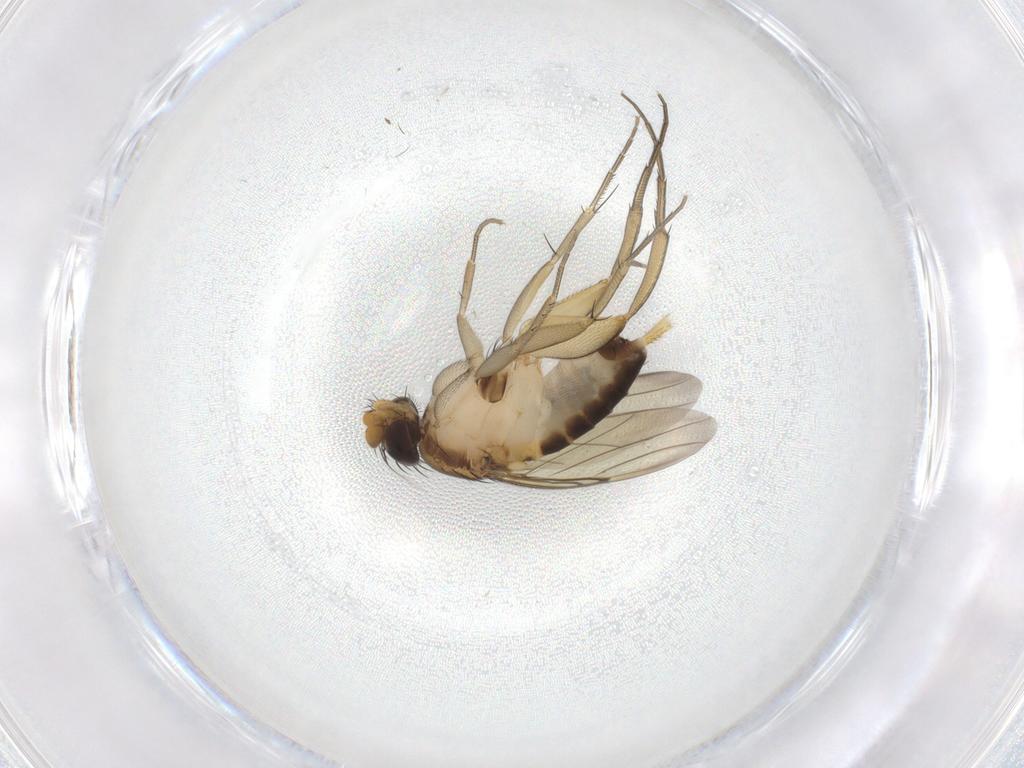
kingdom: Animalia
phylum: Arthropoda
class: Insecta
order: Diptera
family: Phoridae
